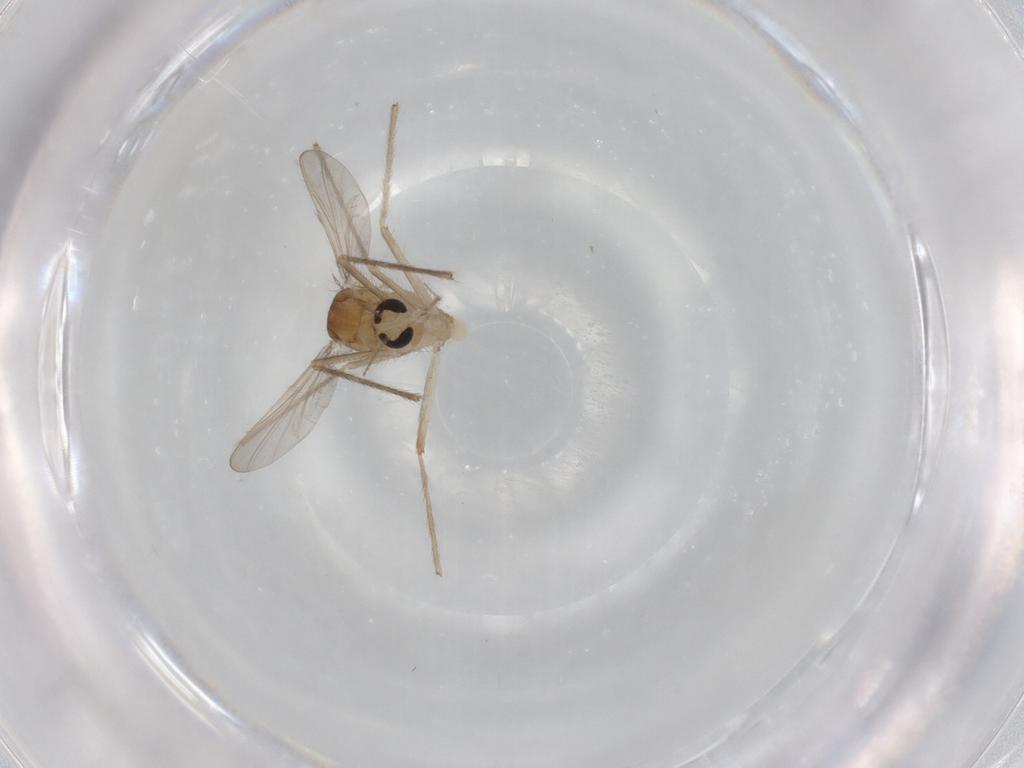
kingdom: Animalia
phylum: Arthropoda
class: Insecta
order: Diptera
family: Chironomidae
